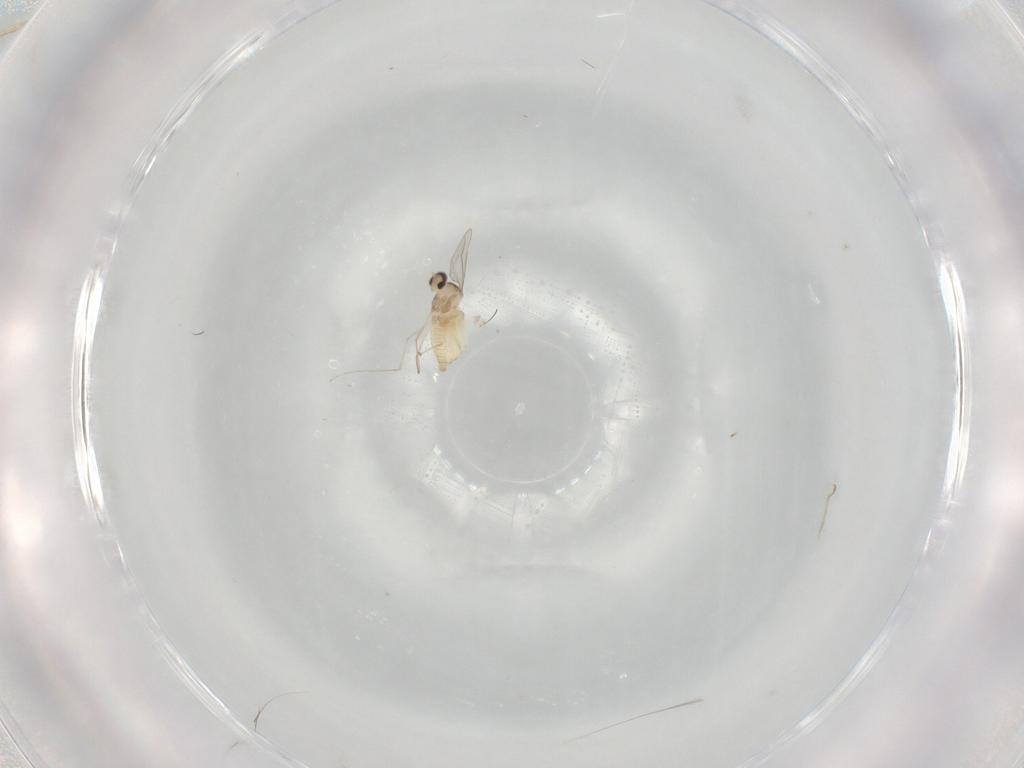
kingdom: Animalia
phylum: Arthropoda
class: Insecta
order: Diptera
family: Cecidomyiidae
